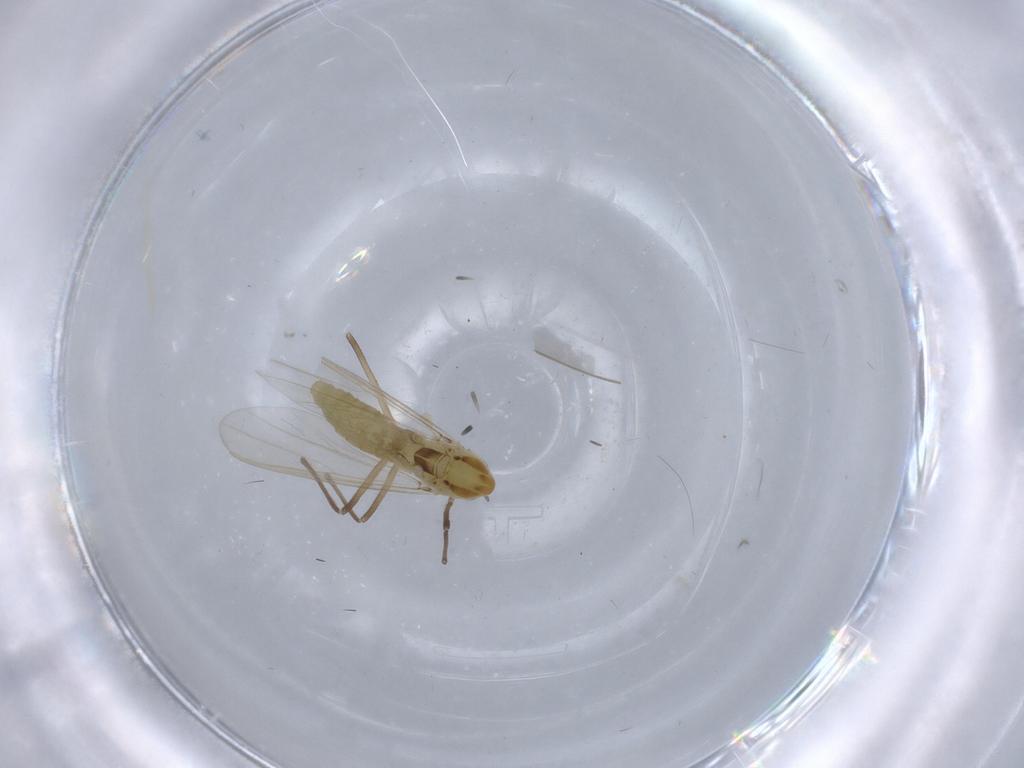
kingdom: Animalia
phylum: Arthropoda
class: Insecta
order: Diptera
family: Chironomidae
